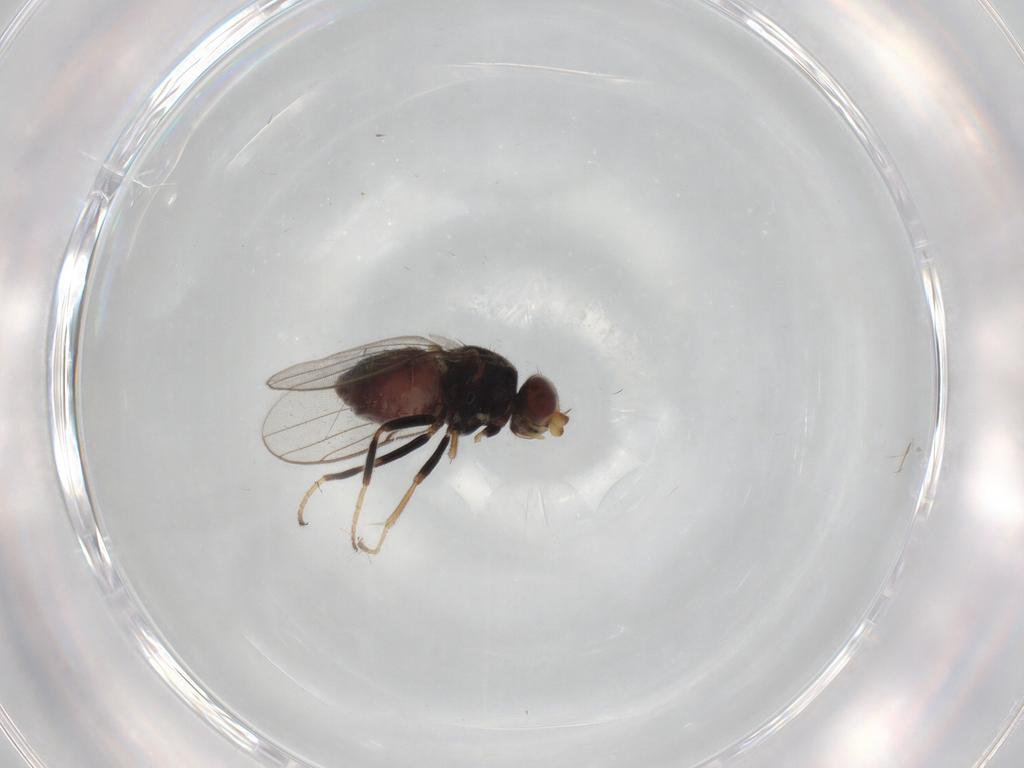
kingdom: Animalia
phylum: Arthropoda
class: Insecta
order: Diptera
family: Chloropidae
